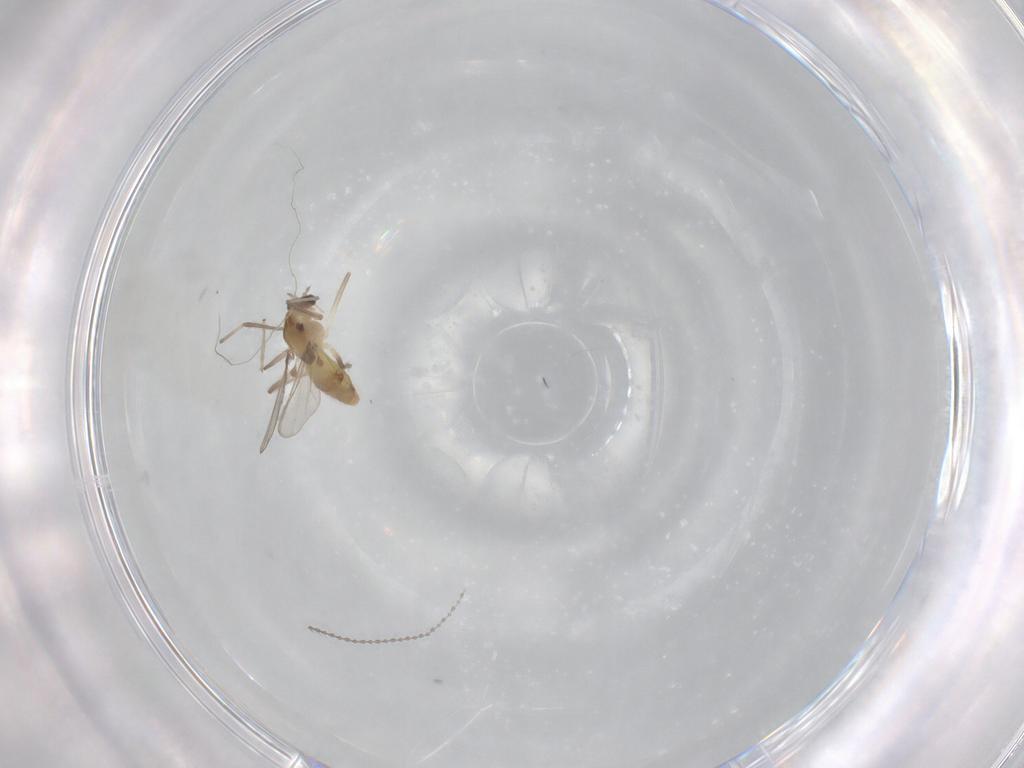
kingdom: Animalia
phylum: Arthropoda
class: Insecta
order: Diptera
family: Chironomidae
